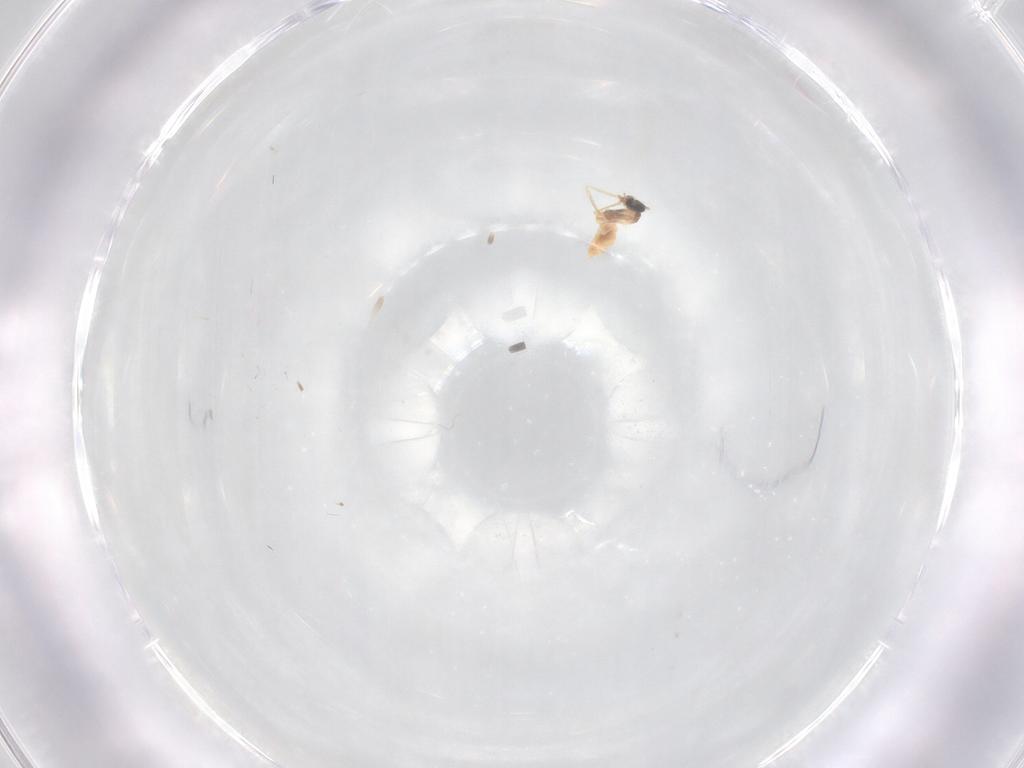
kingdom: Animalia
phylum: Arthropoda
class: Insecta
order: Diptera
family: Cecidomyiidae
